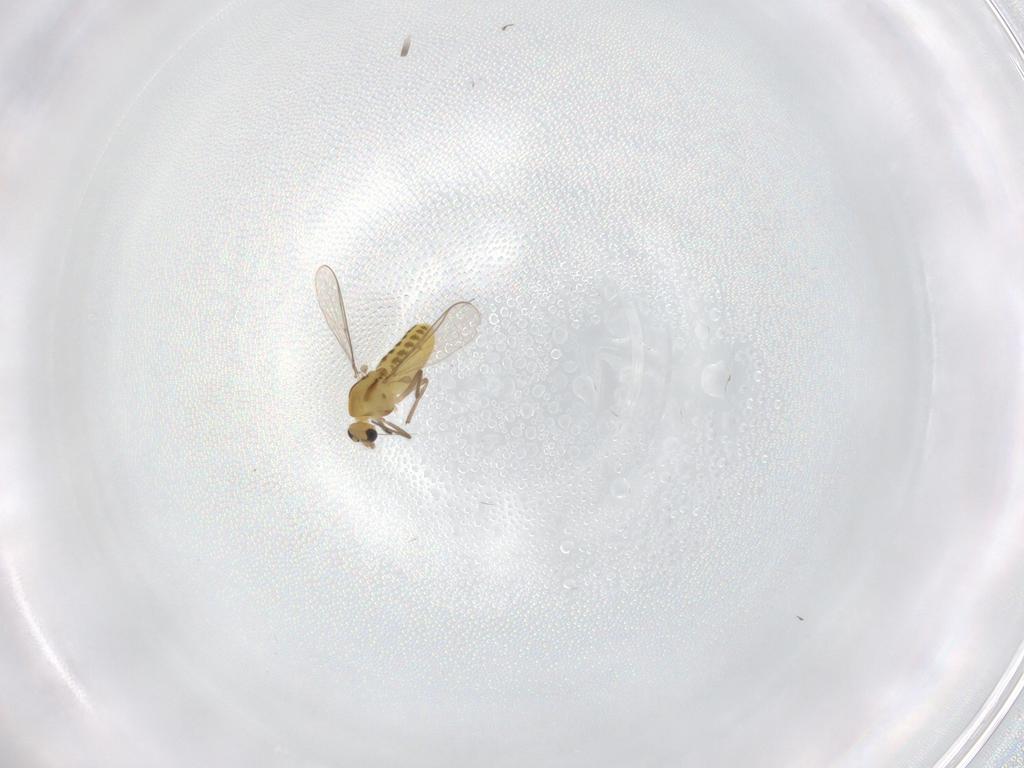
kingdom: Animalia
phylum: Arthropoda
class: Insecta
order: Diptera
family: Chironomidae
